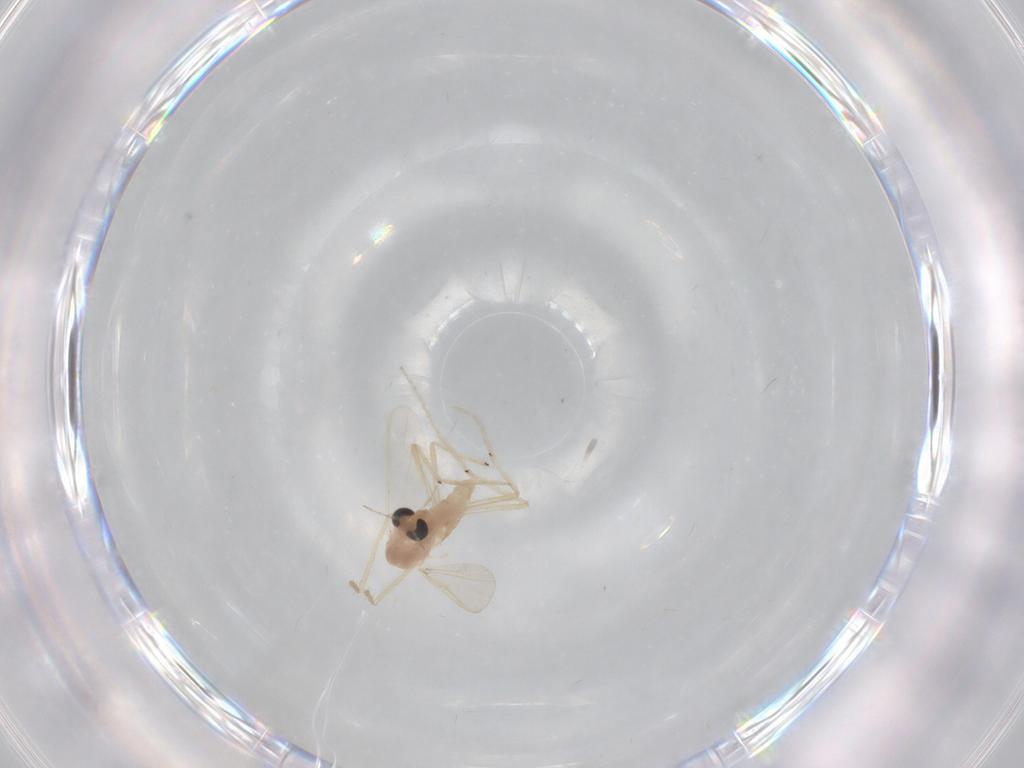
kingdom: Animalia
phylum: Arthropoda
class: Insecta
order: Diptera
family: Chironomidae
